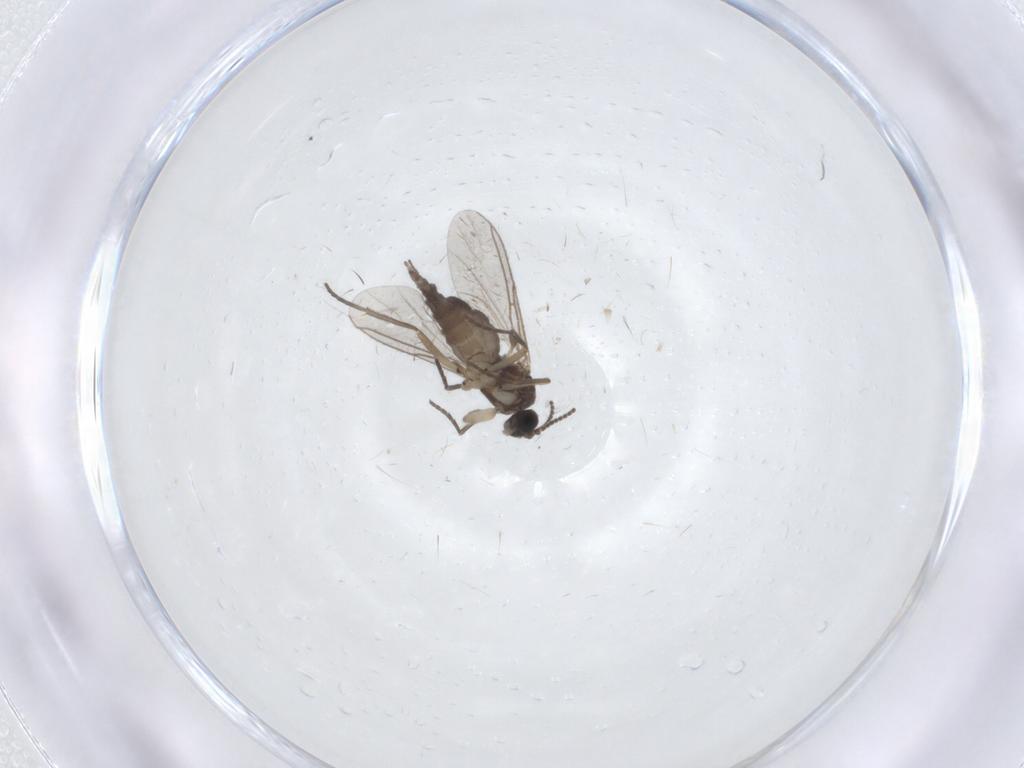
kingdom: Animalia
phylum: Arthropoda
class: Insecta
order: Diptera
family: Sciaridae
